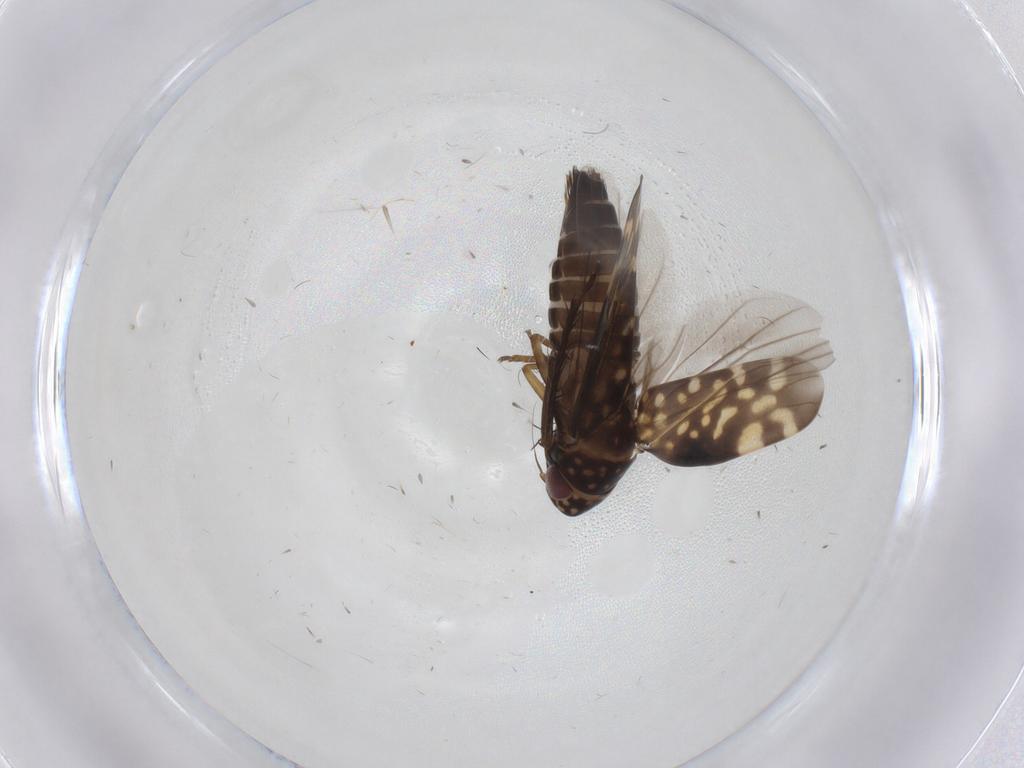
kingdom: Animalia
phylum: Arthropoda
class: Insecta
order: Hemiptera
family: Cicadellidae
